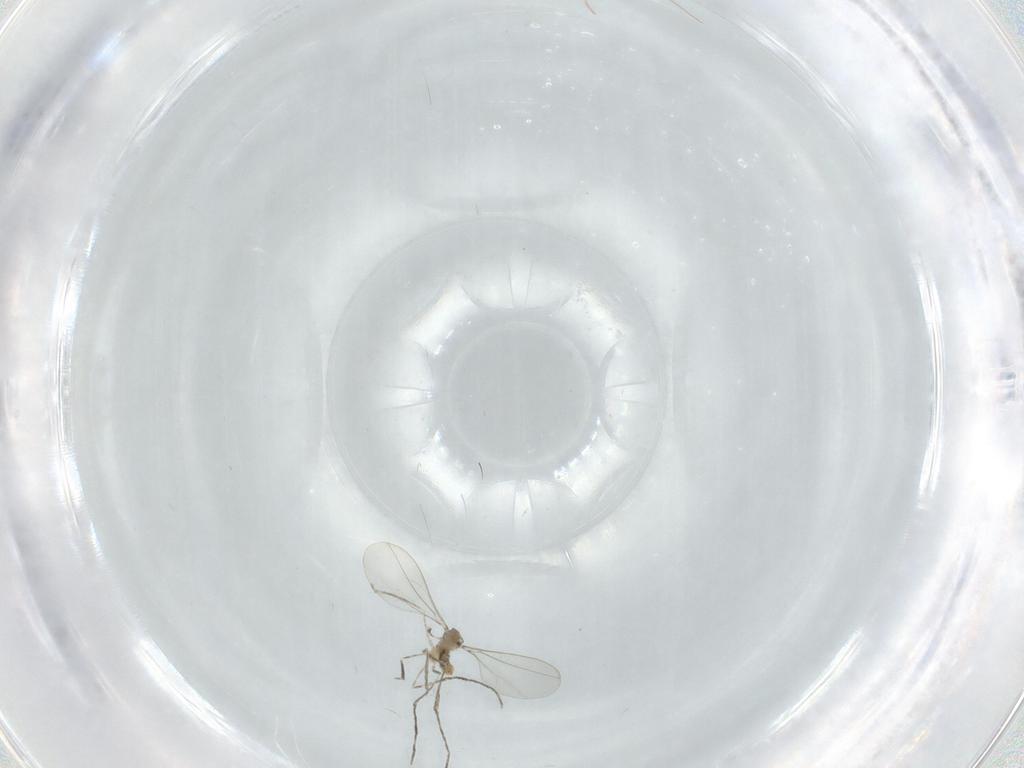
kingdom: Animalia
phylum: Arthropoda
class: Insecta
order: Diptera
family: Cecidomyiidae
